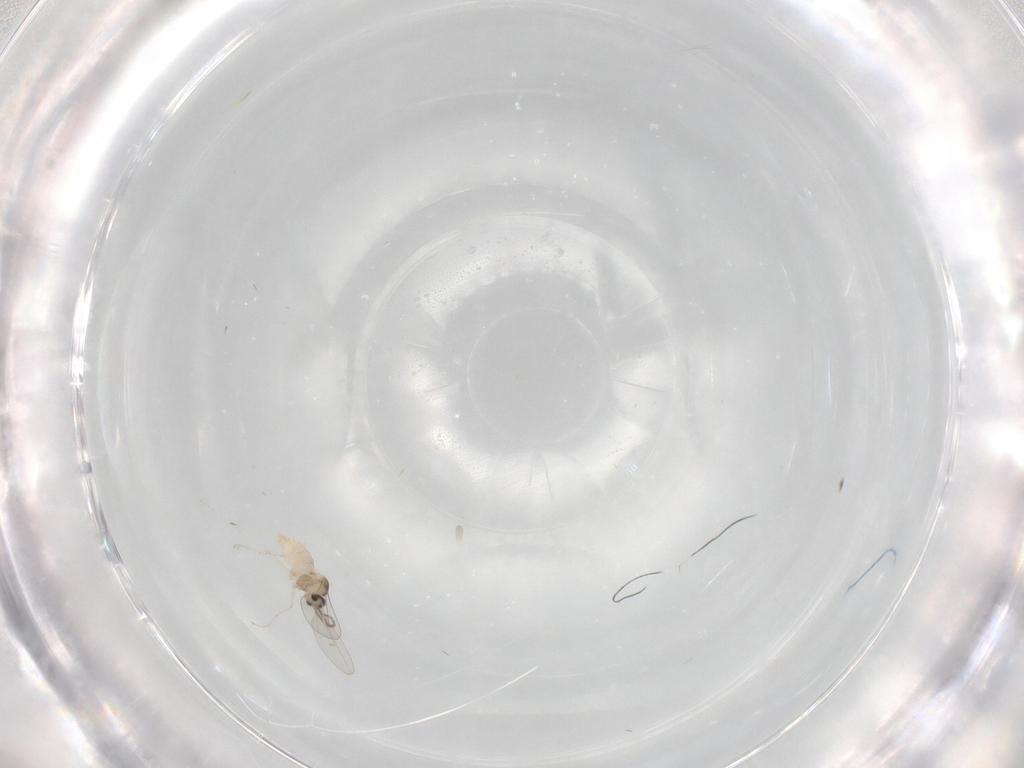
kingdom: Animalia
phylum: Arthropoda
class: Insecta
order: Diptera
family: Cecidomyiidae
